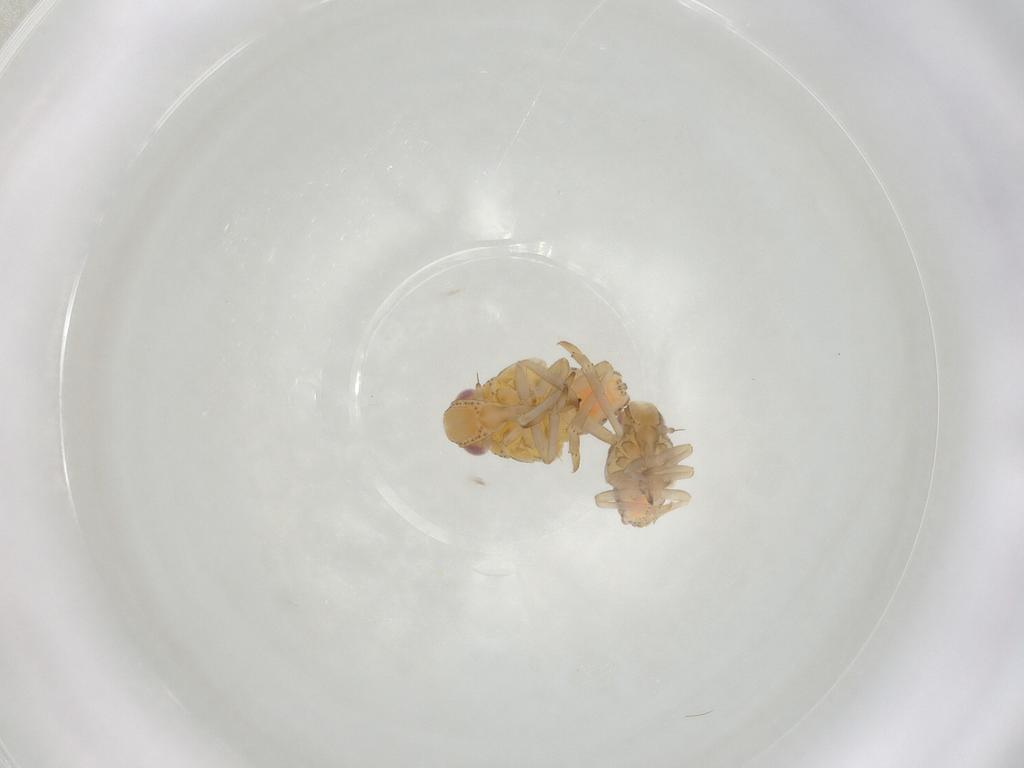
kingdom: Animalia
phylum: Arthropoda
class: Insecta
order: Hemiptera
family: Tropiduchidae
